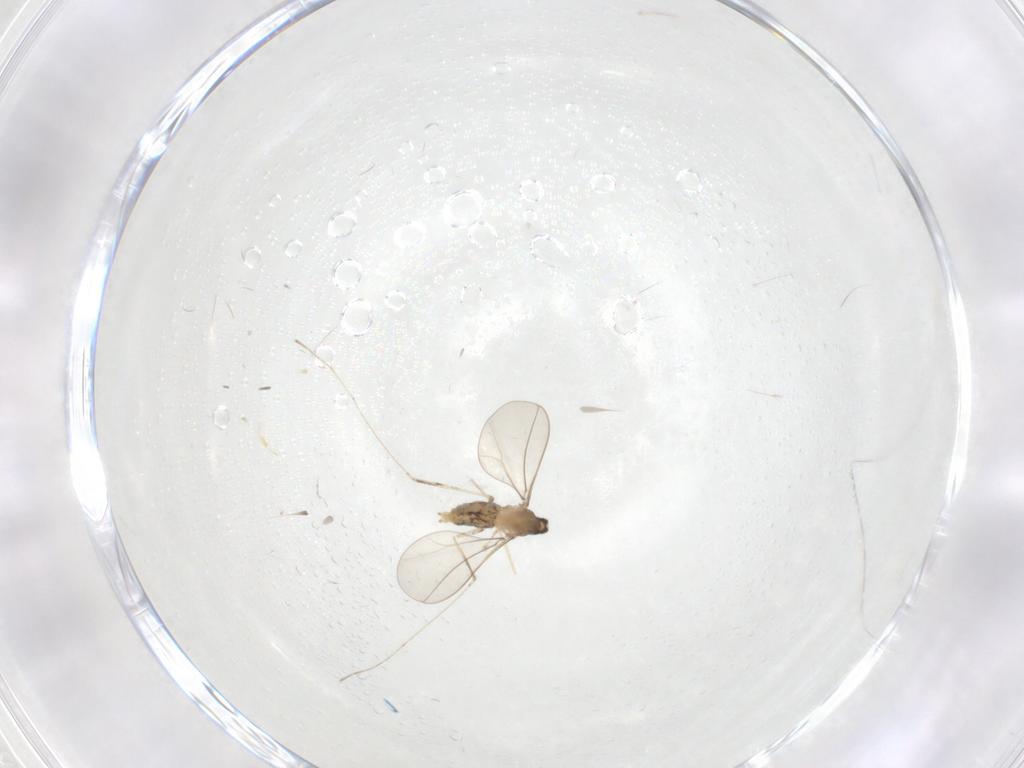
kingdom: Animalia
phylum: Arthropoda
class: Insecta
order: Diptera
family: Cecidomyiidae
